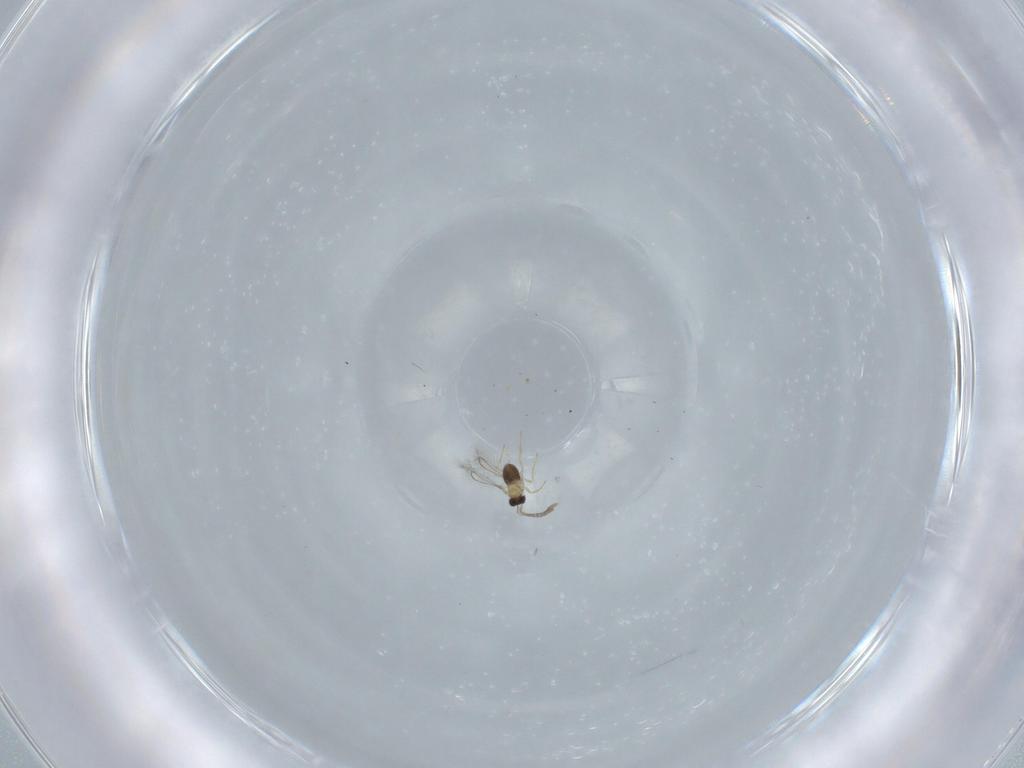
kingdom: Animalia
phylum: Arthropoda
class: Insecta
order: Hymenoptera
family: Mymaridae
